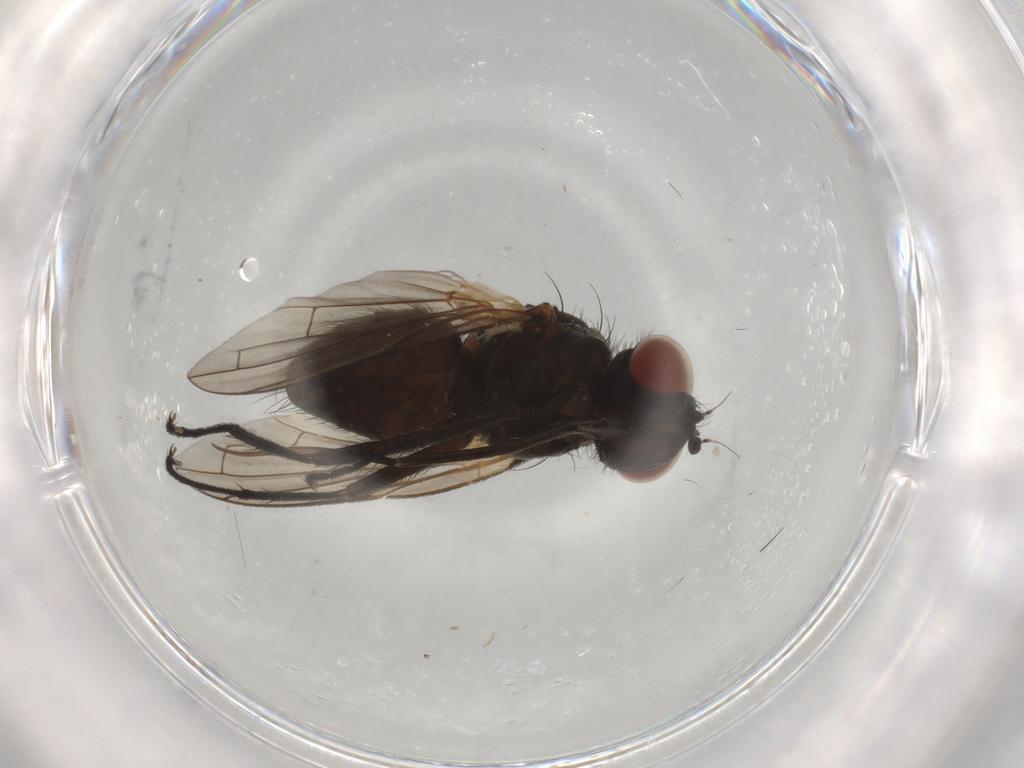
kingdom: Animalia
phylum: Arthropoda
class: Insecta
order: Diptera
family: Tachinidae
